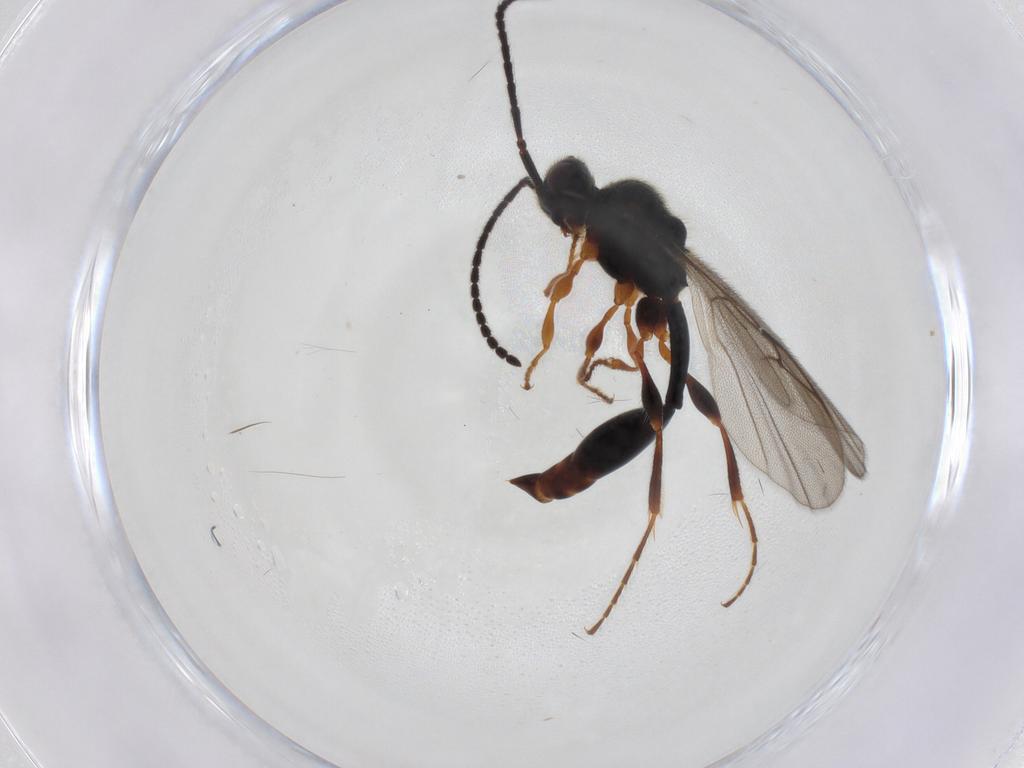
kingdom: Animalia
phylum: Arthropoda
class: Insecta
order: Hymenoptera
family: Diapriidae
